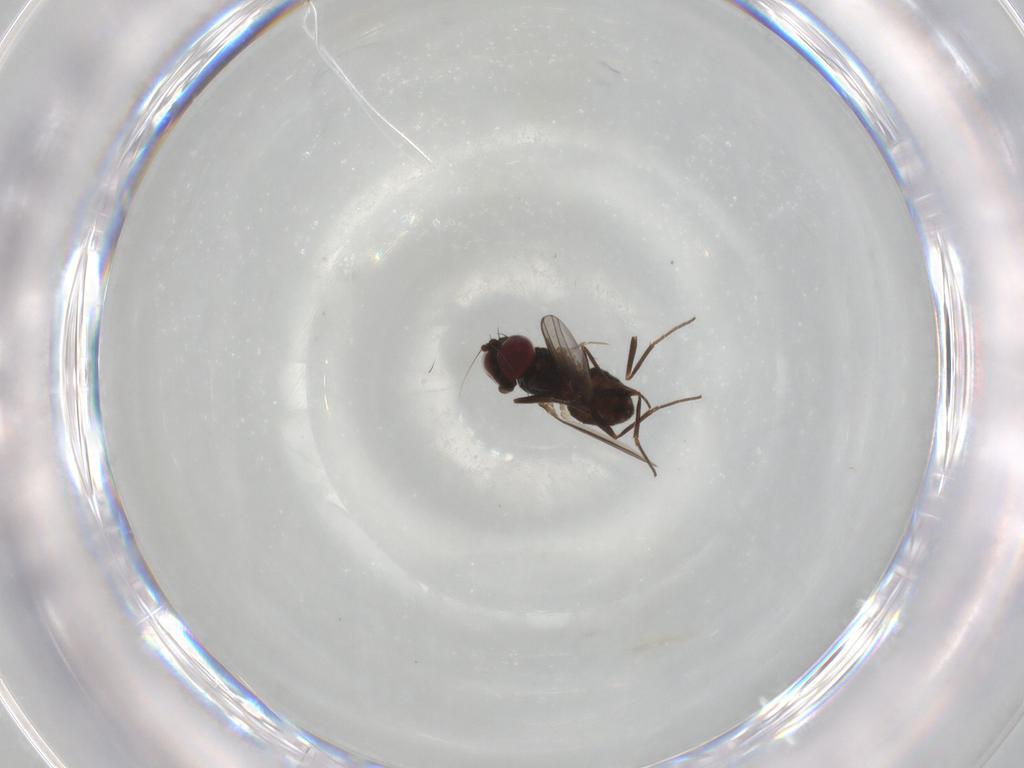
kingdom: Animalia
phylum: Arthropoda
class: Insecta
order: Diptera
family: Dolichopodidae
